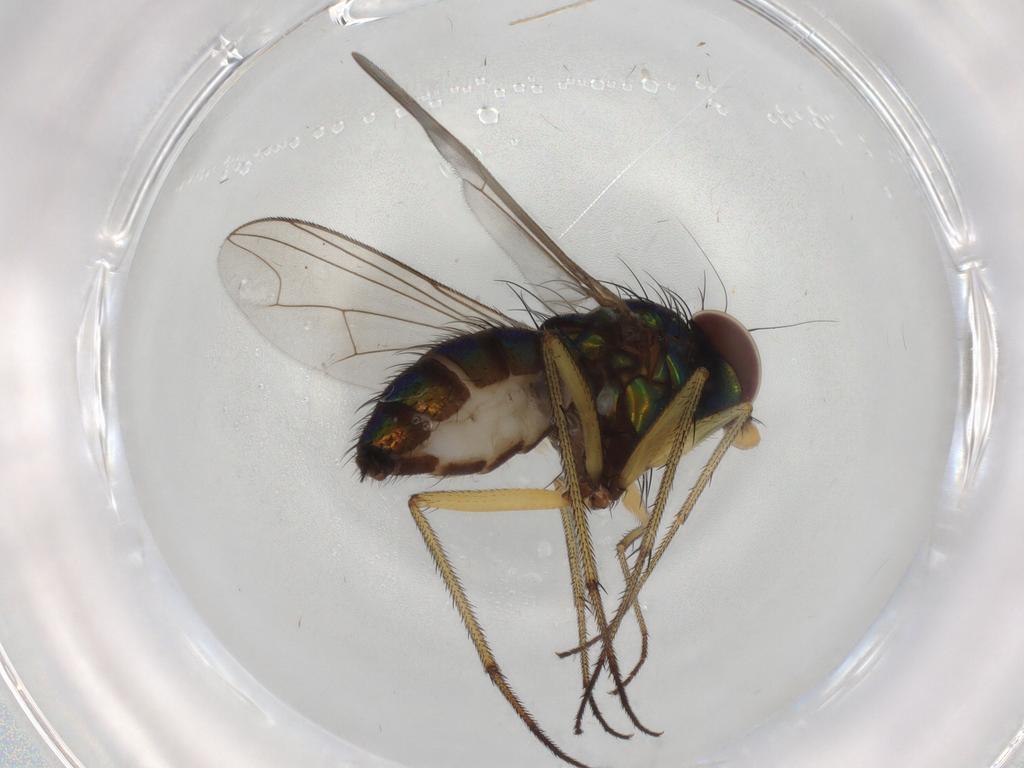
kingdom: Animalia
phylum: Arthropoda
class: Insecta
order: Diptera
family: Dolichopodidae
